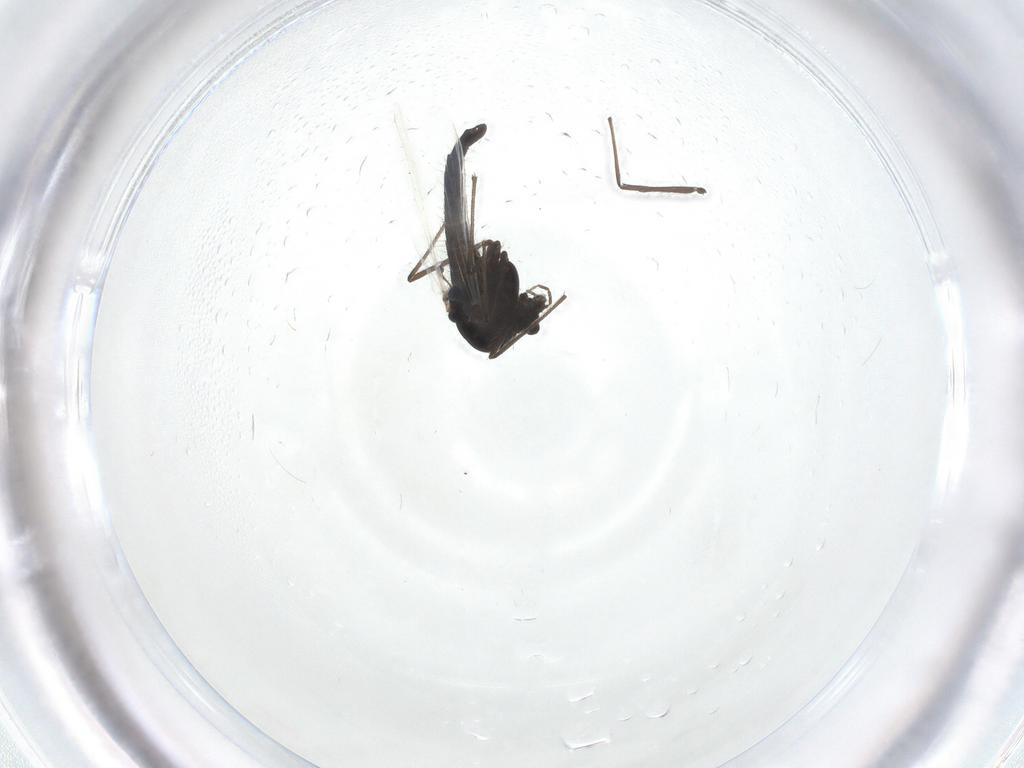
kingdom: Animalia
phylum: Arthropoda
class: Insecta
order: Diptera
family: Ceratopogonidae
